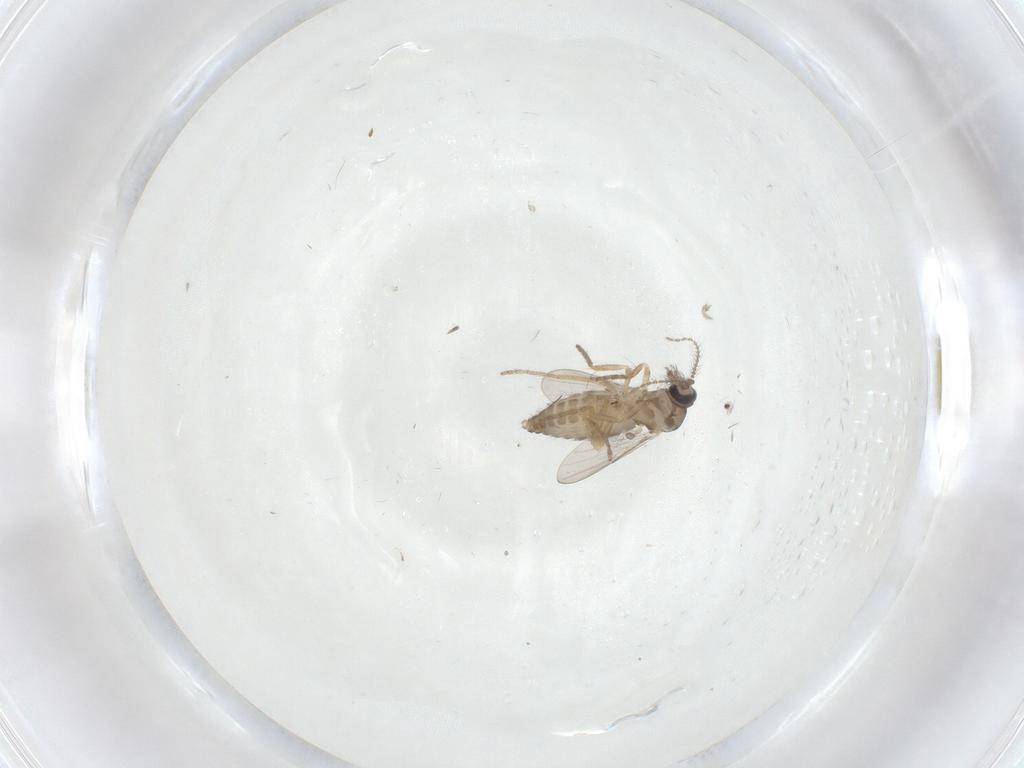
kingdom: Animalia
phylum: Arthropoda
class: Insecta
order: Diptera
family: Ceratopogonidae
